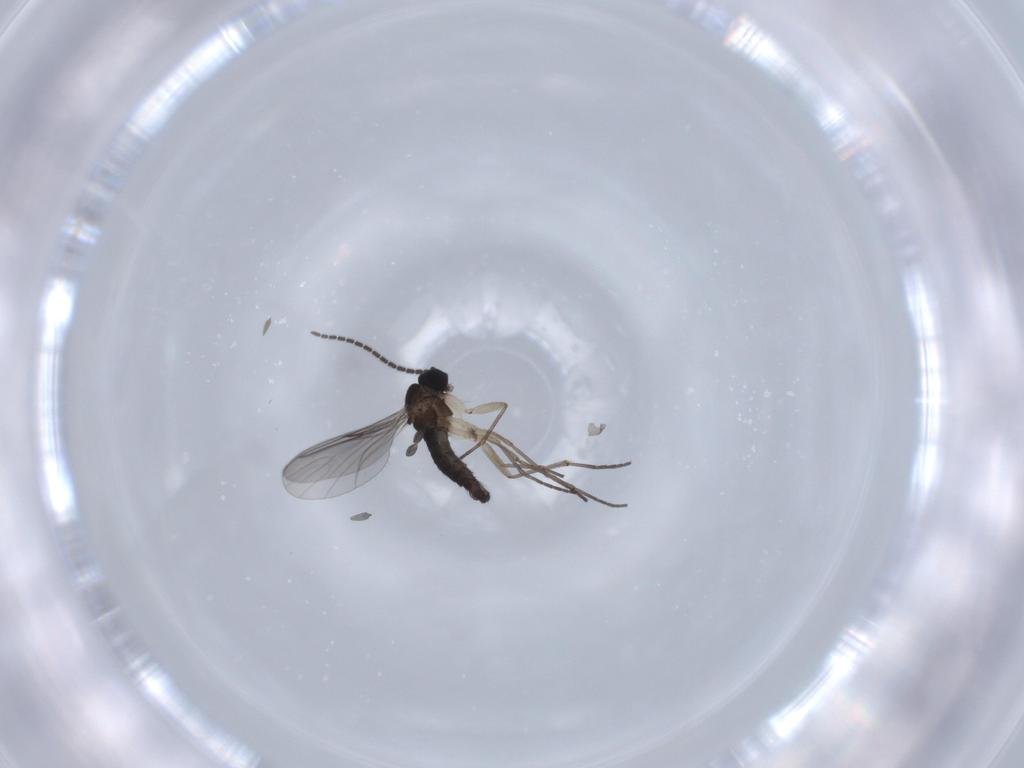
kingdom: Animalia
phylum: Arthropoda
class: Insecta
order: Diptera
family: Sciaridae
